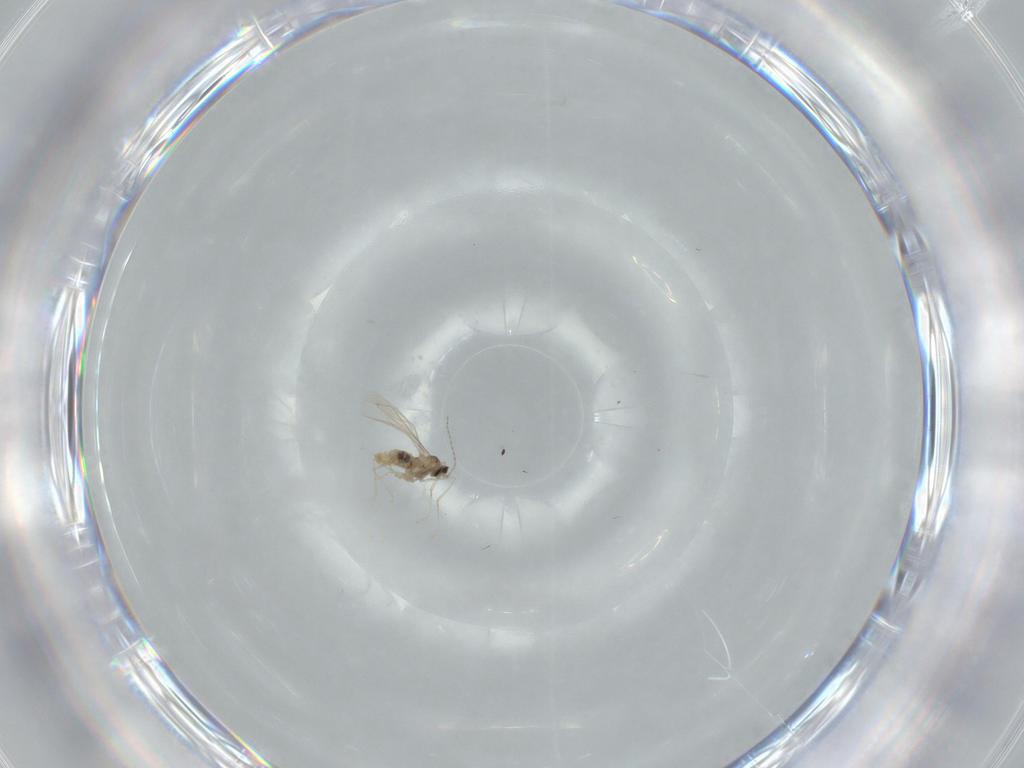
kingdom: Animalia
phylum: Arthropoda
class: Insecta
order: Diptera
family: Cecidomyiidae
